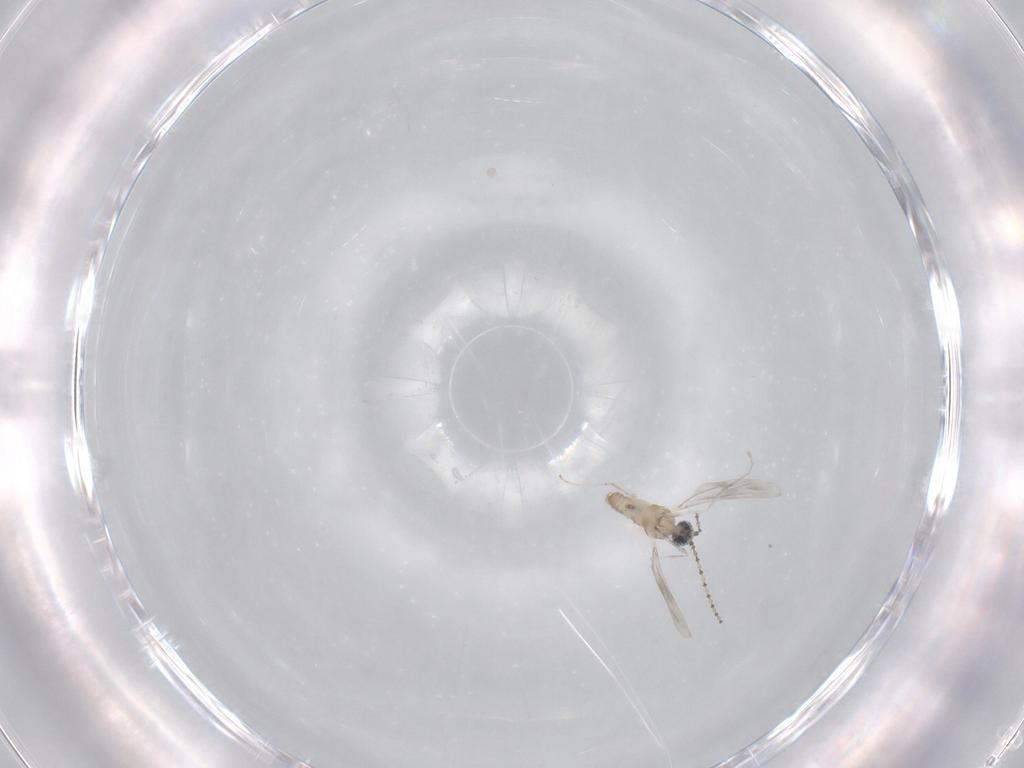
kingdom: Animalia
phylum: Arthropoda
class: Insecta
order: Diptera
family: Cecidomyiidae
